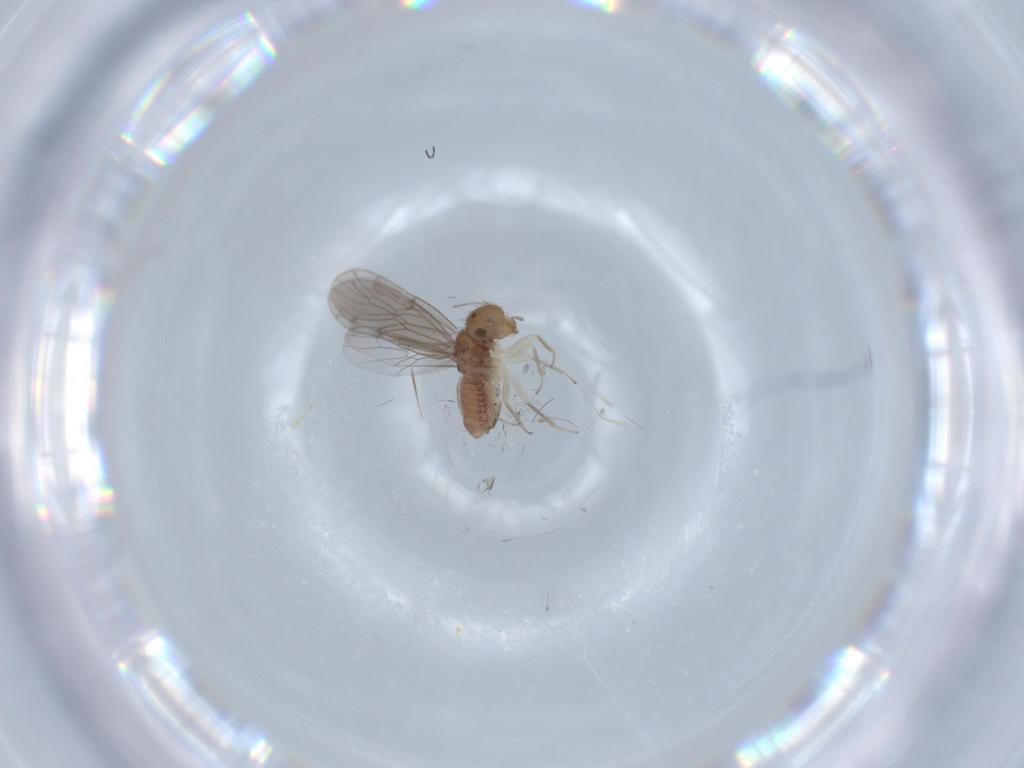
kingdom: Animalia
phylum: Arthropoda
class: Insecta
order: Psocodea
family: Ectopsocidae
